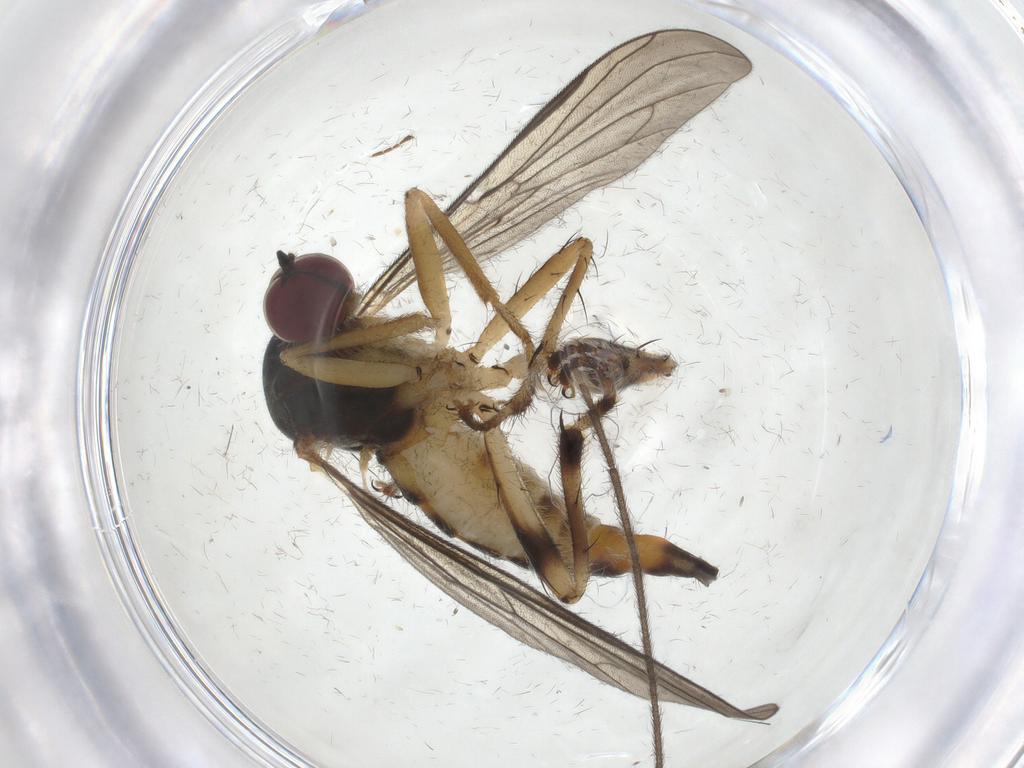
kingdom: Animalia
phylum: Arthropoda
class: Insecta
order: Diptera
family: Hybotidae
